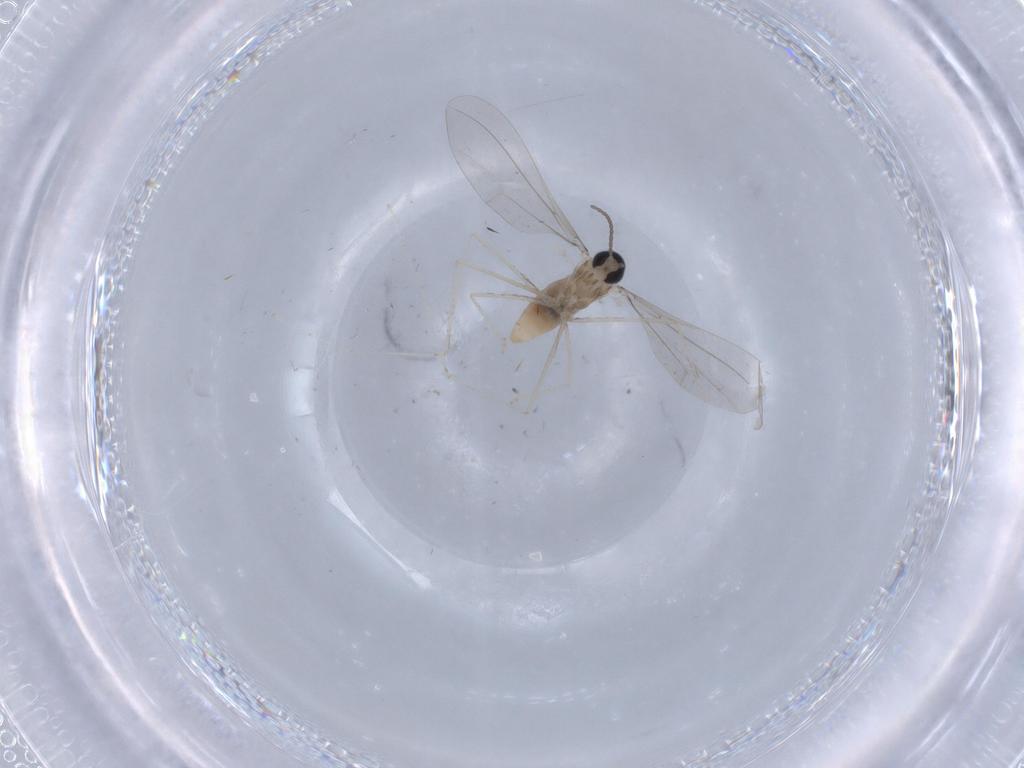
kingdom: Animalia
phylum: Arthropoda
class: Insecta
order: Diptera
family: Cecidomyiidae
